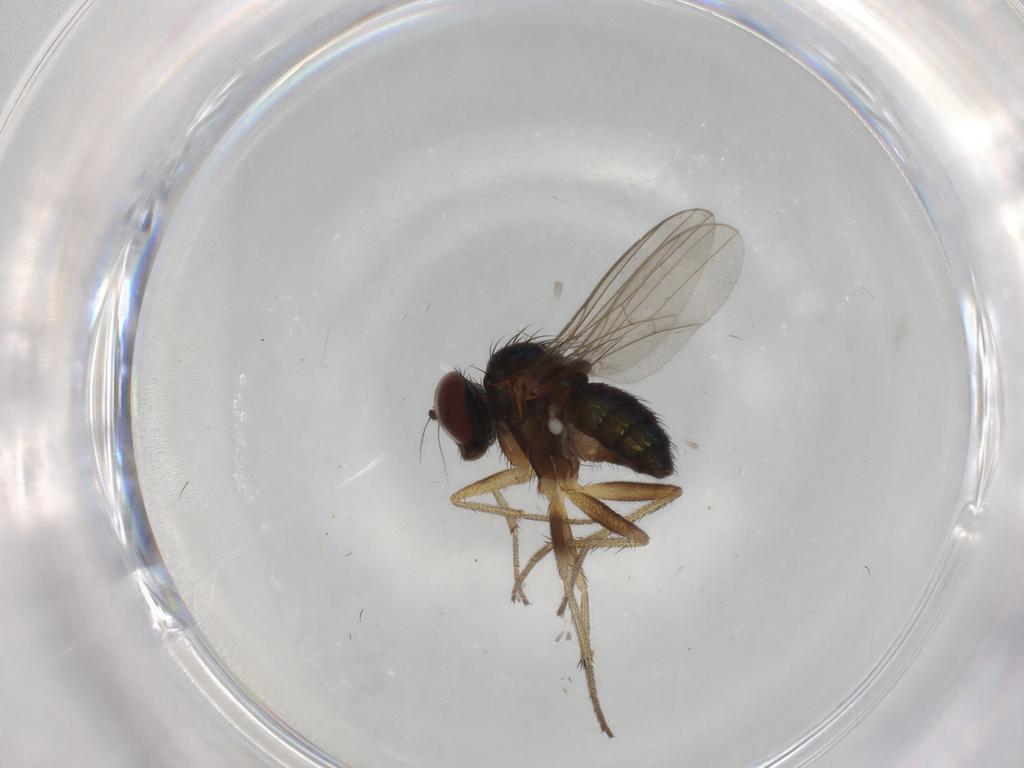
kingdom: Animalia
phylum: Arthropoda
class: Insecta
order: Diptera
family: Dolichopodidae
